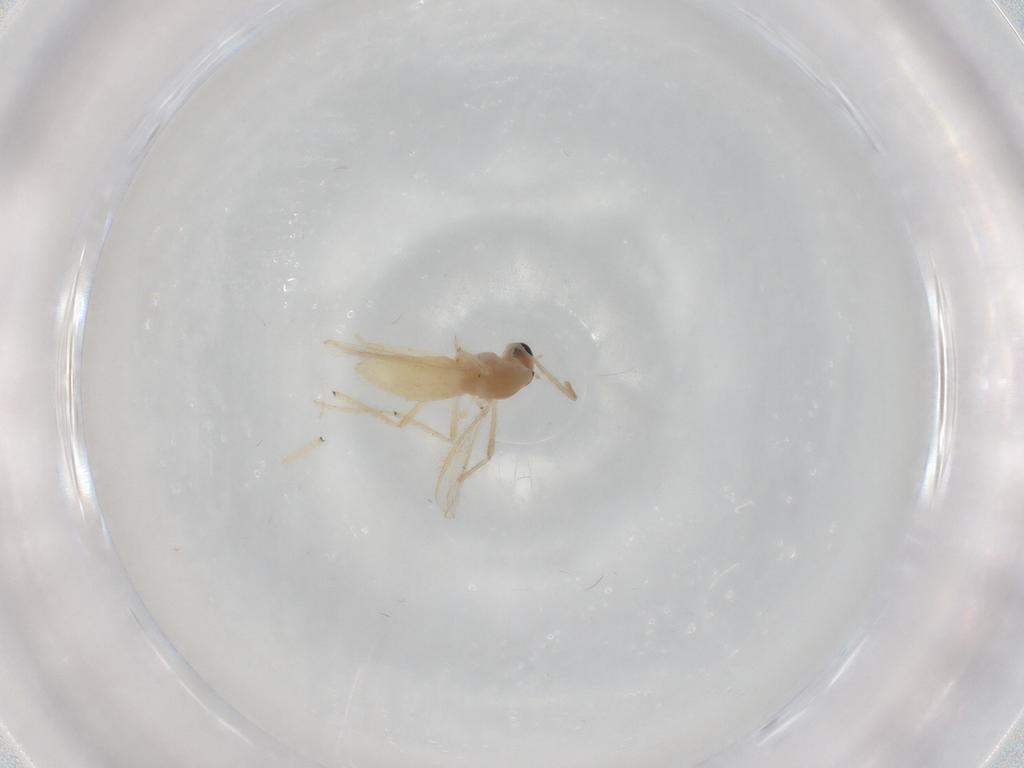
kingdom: Animalia
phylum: Arthropoda
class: Insecta
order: Diptera
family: Chironomidae
